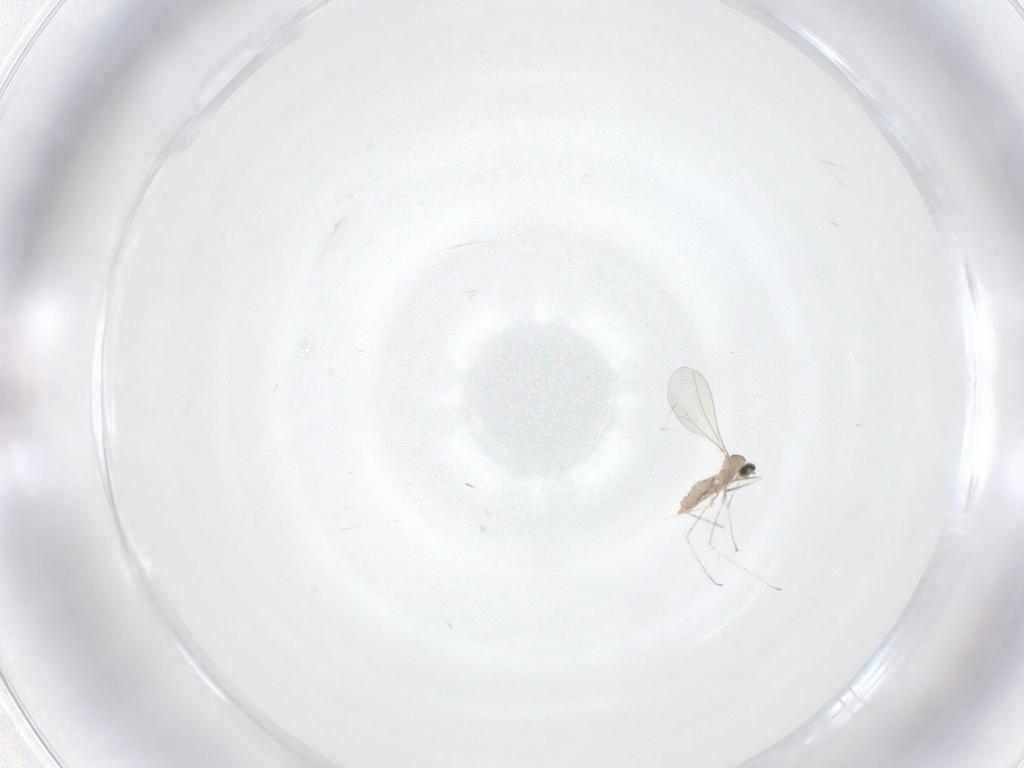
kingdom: Animalia
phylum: Arthropoda
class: Insecta
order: Diptera
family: Cecidomyiidae
